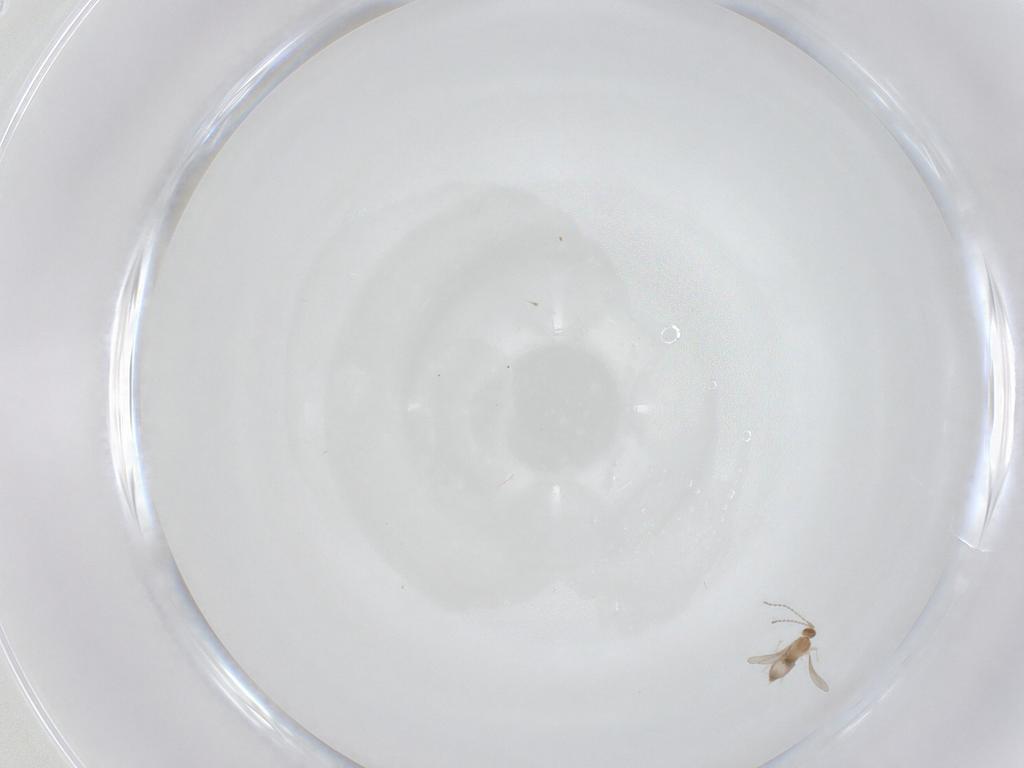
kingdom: Animalia
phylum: Arthropoda
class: Insecta
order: Diptera
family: Cecidomyiidae
